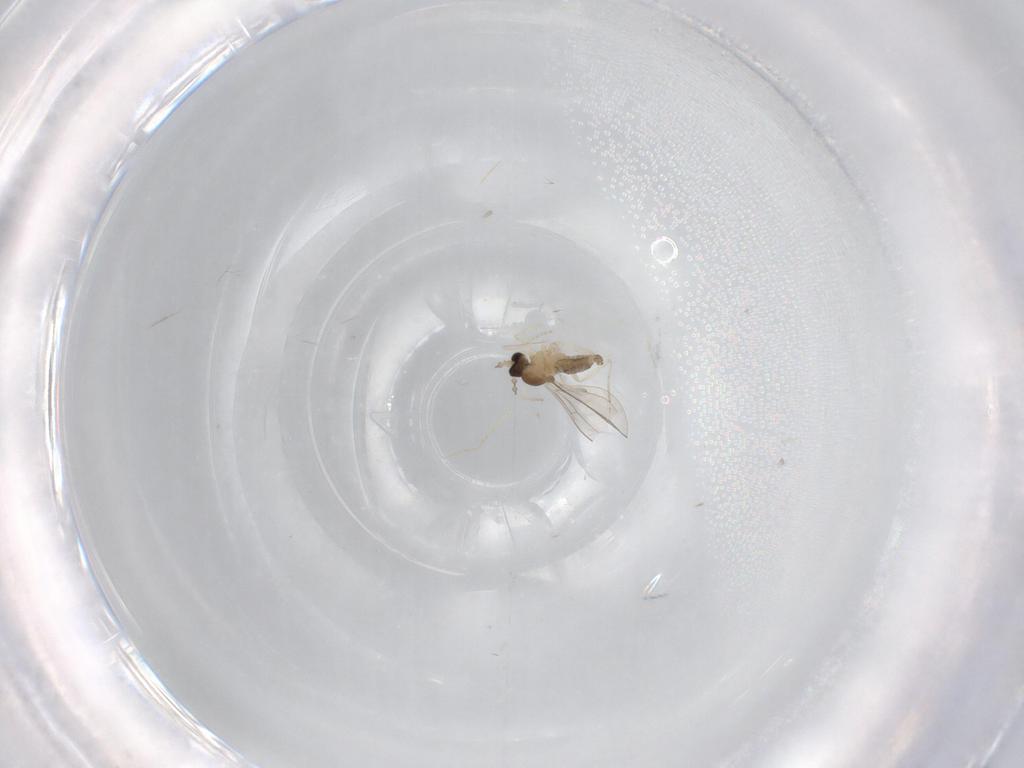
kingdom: Animalia
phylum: Arthropoda
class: Insecta
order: Diptera
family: Cecidomyiidae
